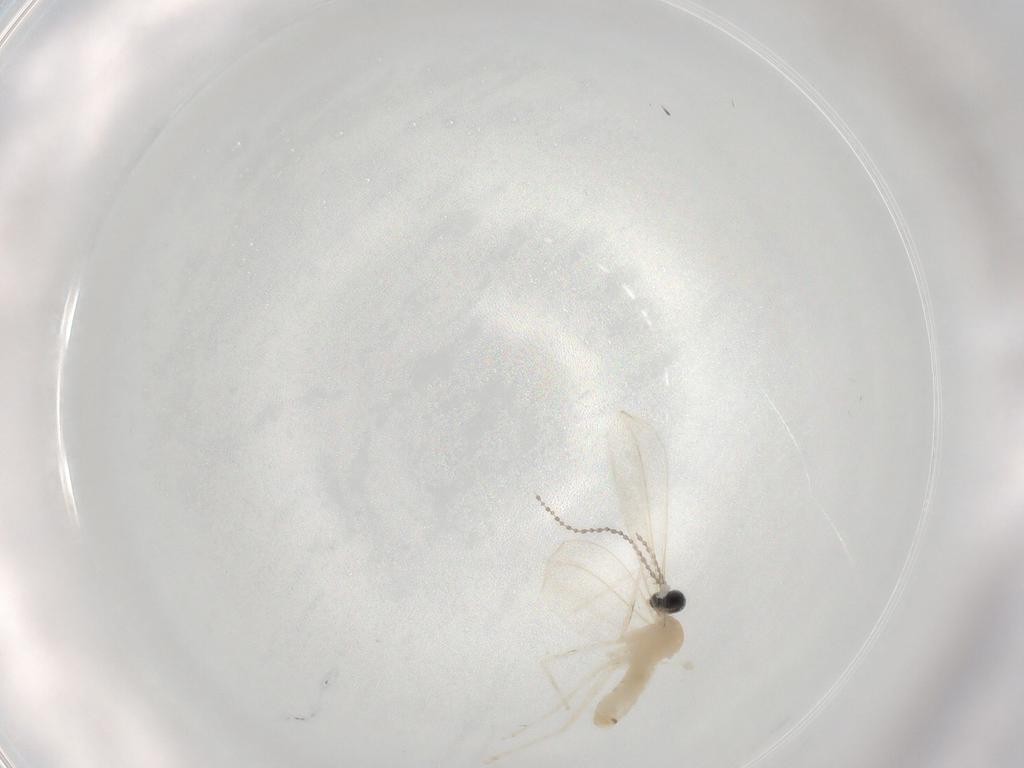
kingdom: Animalia
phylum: Arthropoda
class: Insecta
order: Diptera
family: Cecidomyiidae
